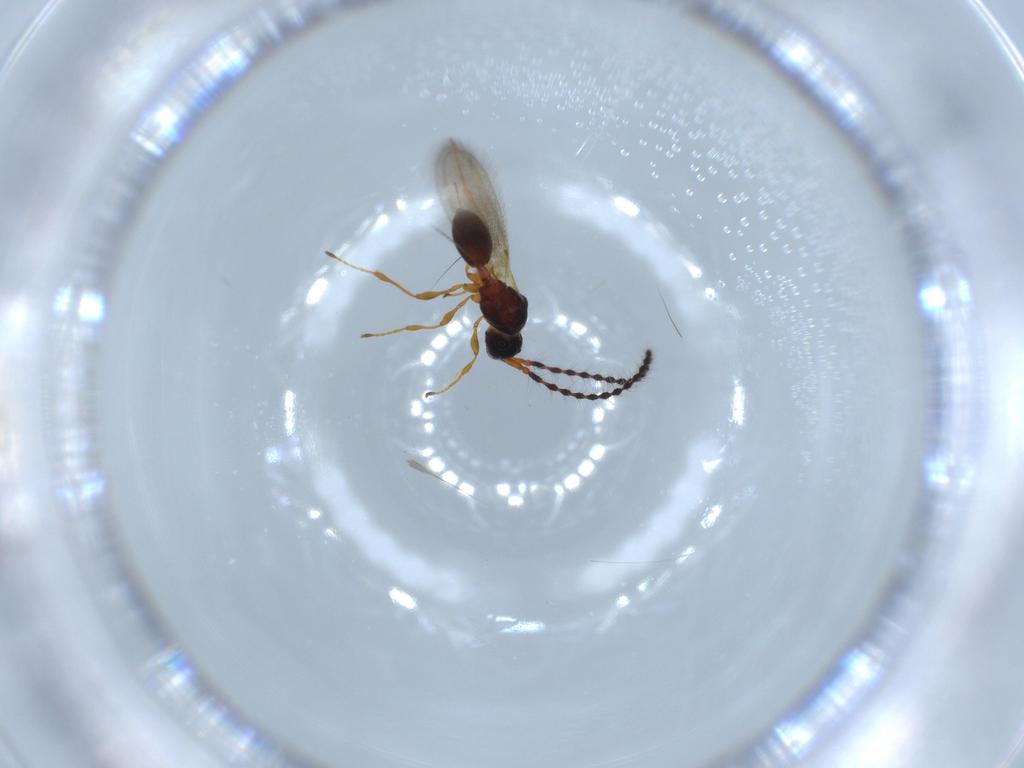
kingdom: Animalia
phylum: Arthropoda
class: Insecta
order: Hymenoptera
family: Diapriidae
